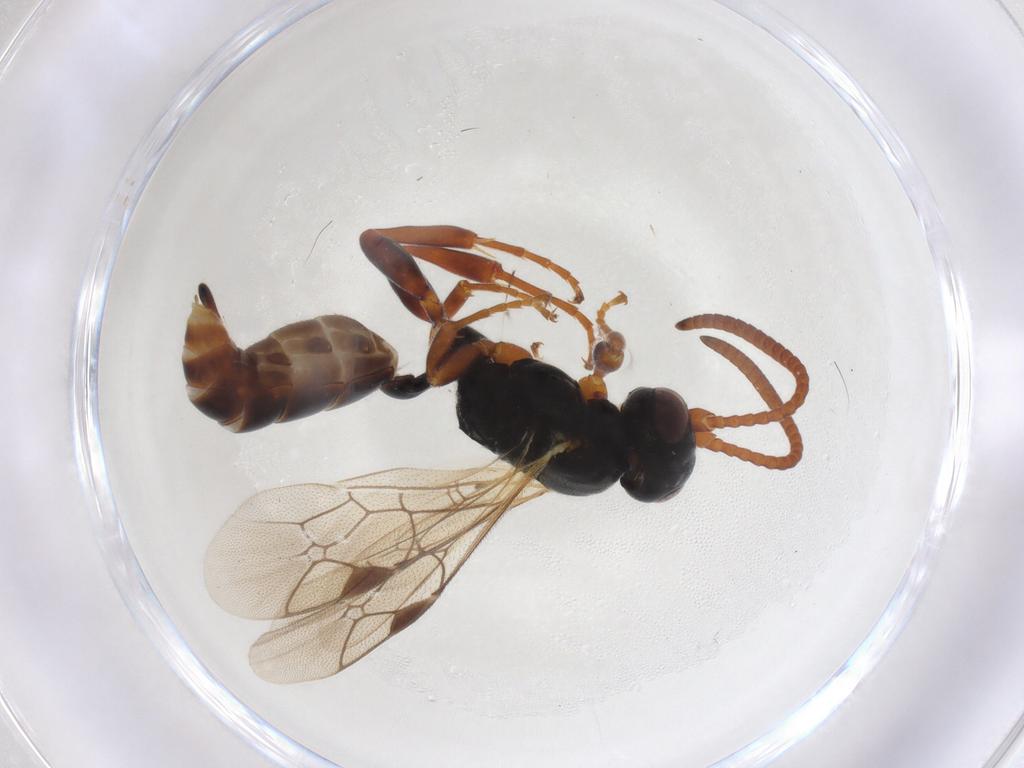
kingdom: Animalia
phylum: Arthropoda
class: Insecta
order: Hymenoptera
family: Ichneumonidae
